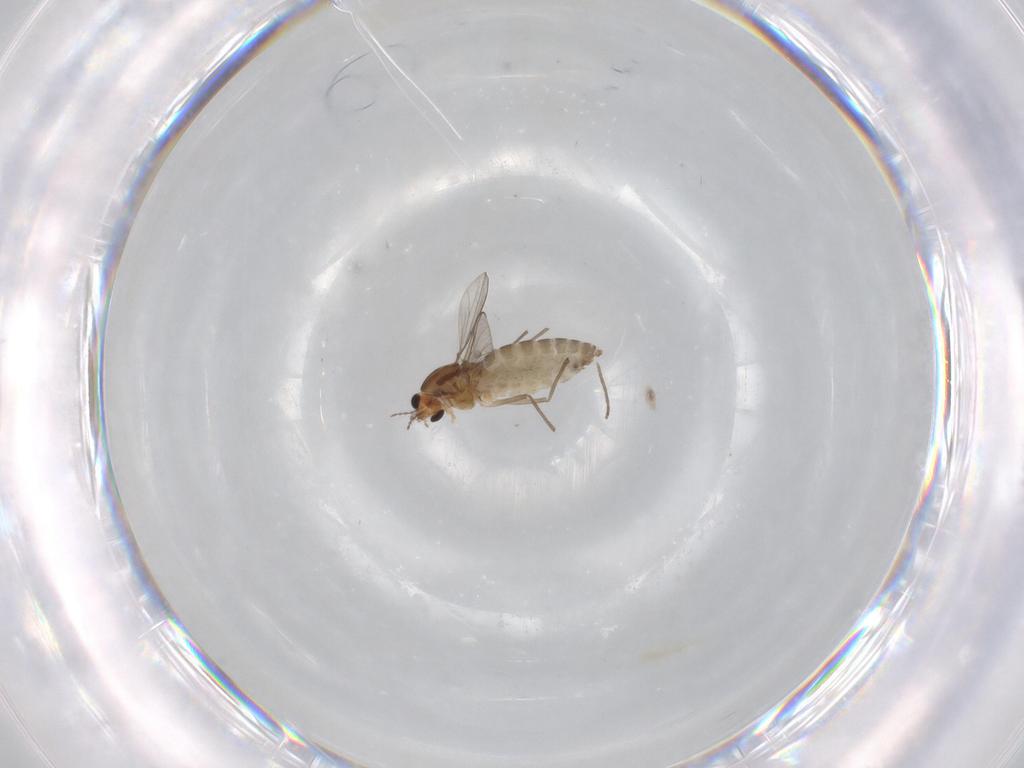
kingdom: Animalia
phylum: Arthropoda
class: Insecta
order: Diptera
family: Chironomidae
